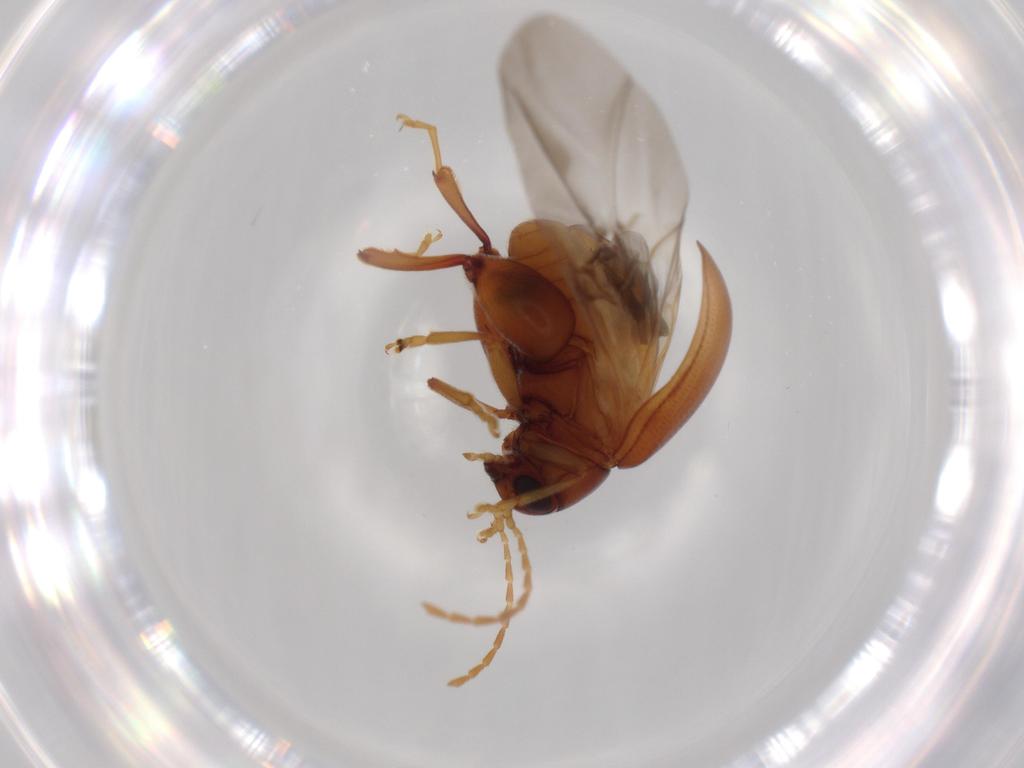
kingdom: Animalia
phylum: Arthropoda
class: Insecta
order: Coleoptera
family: Chrysomelidae
